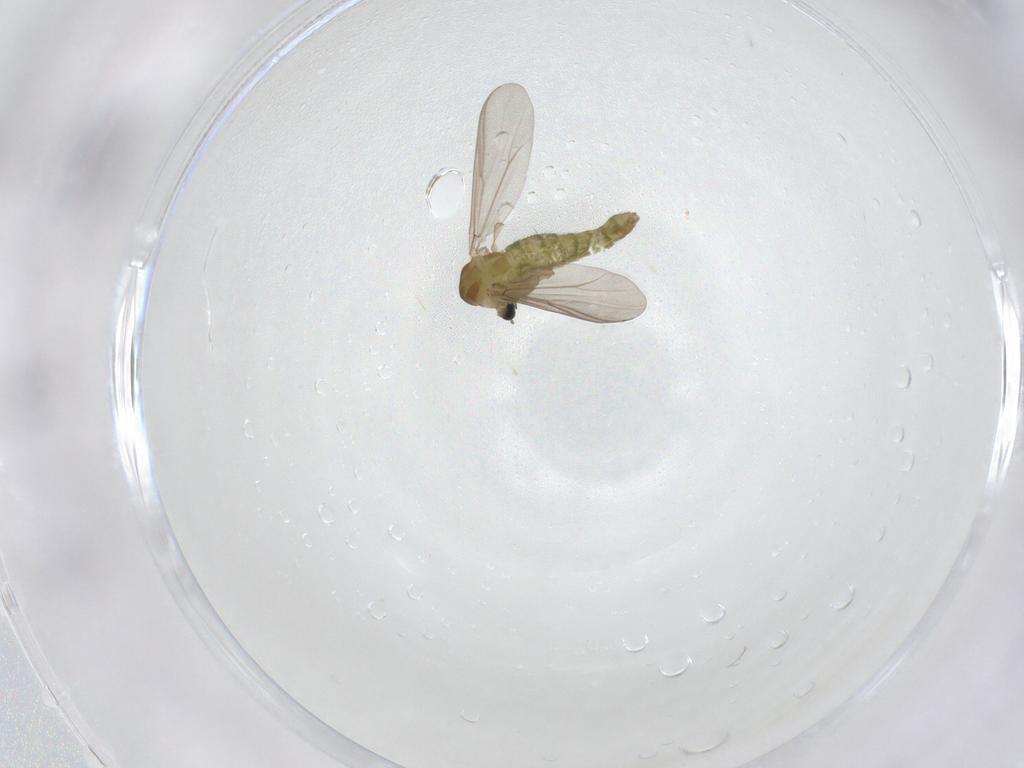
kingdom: Animalia
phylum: Arthropoda
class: Insecta
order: Diptera
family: Chironomidae
